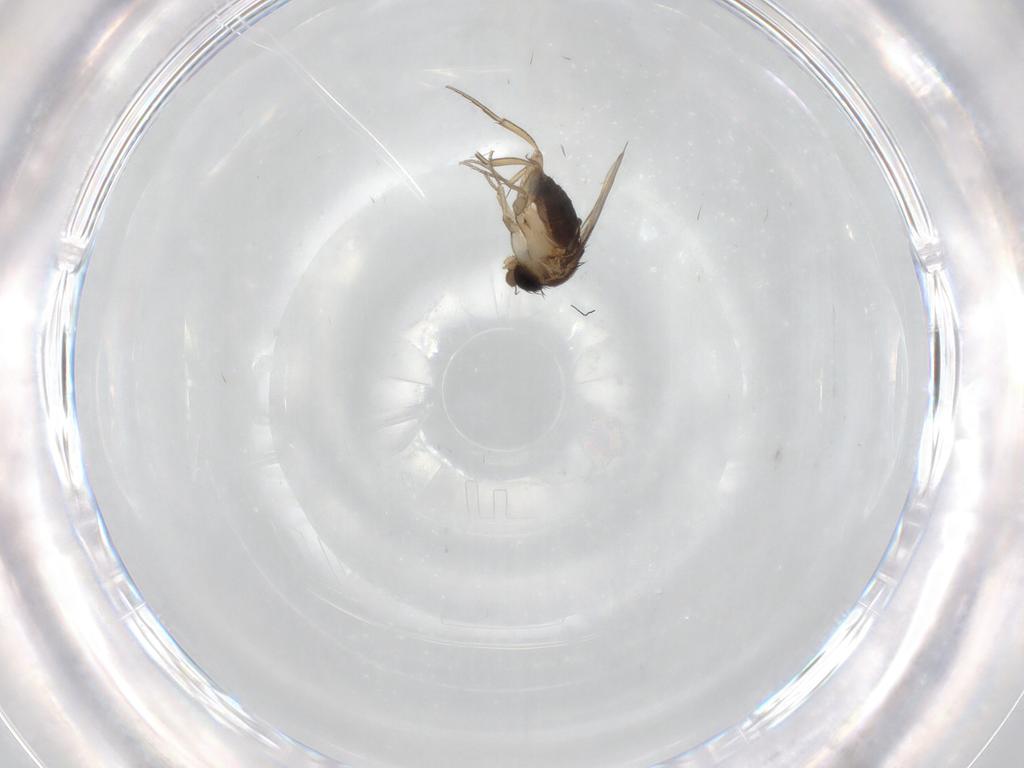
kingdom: Animalia
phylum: Arthropoda
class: Insecta
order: Diptera
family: Phoridae
